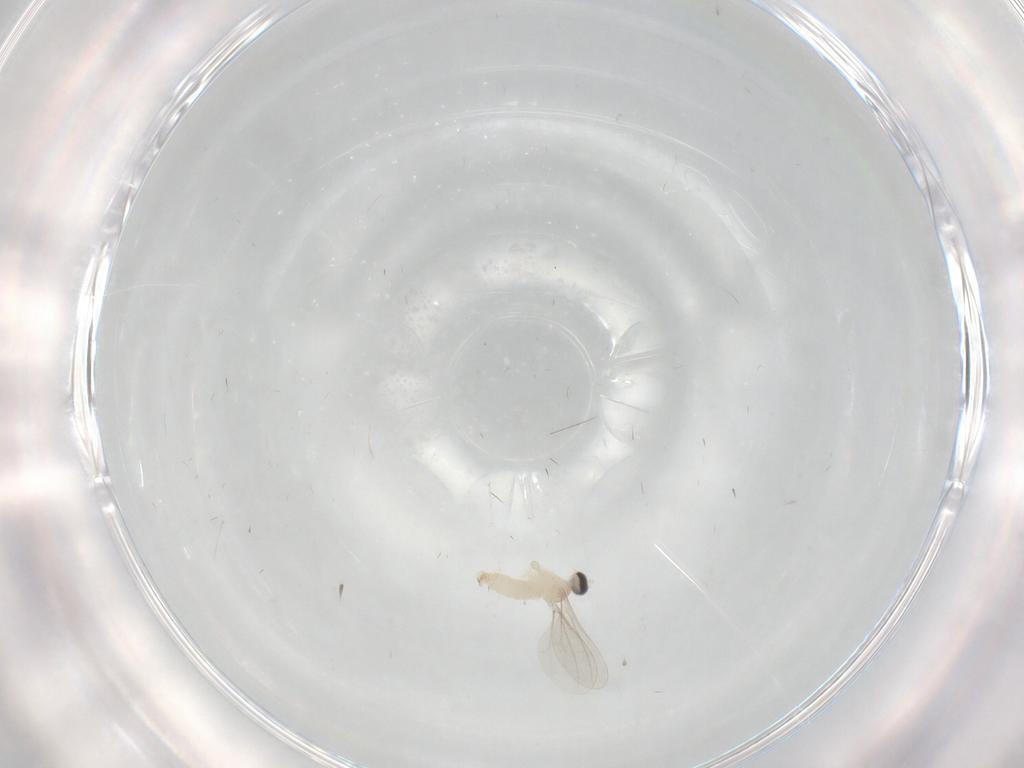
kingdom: Animalia
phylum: Arthropoda
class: Insecta
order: Diptera
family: Cecidomyiidae
